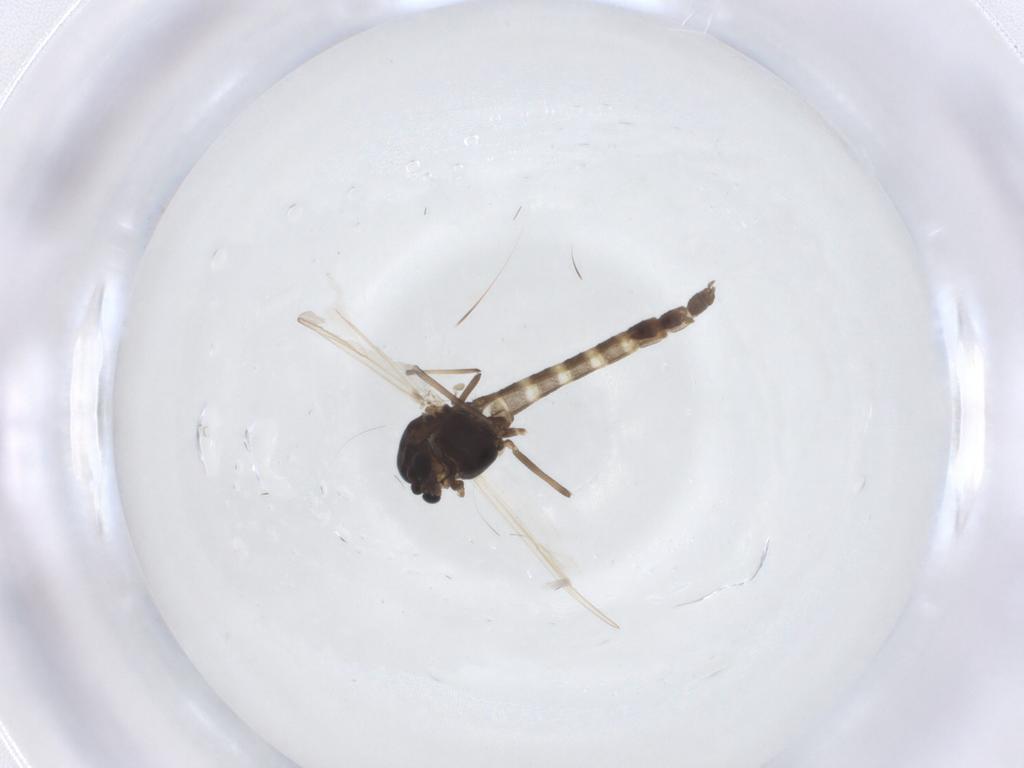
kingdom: Animalia
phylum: Arthropoda
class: Insecta
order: Diptera
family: Chironomidae
